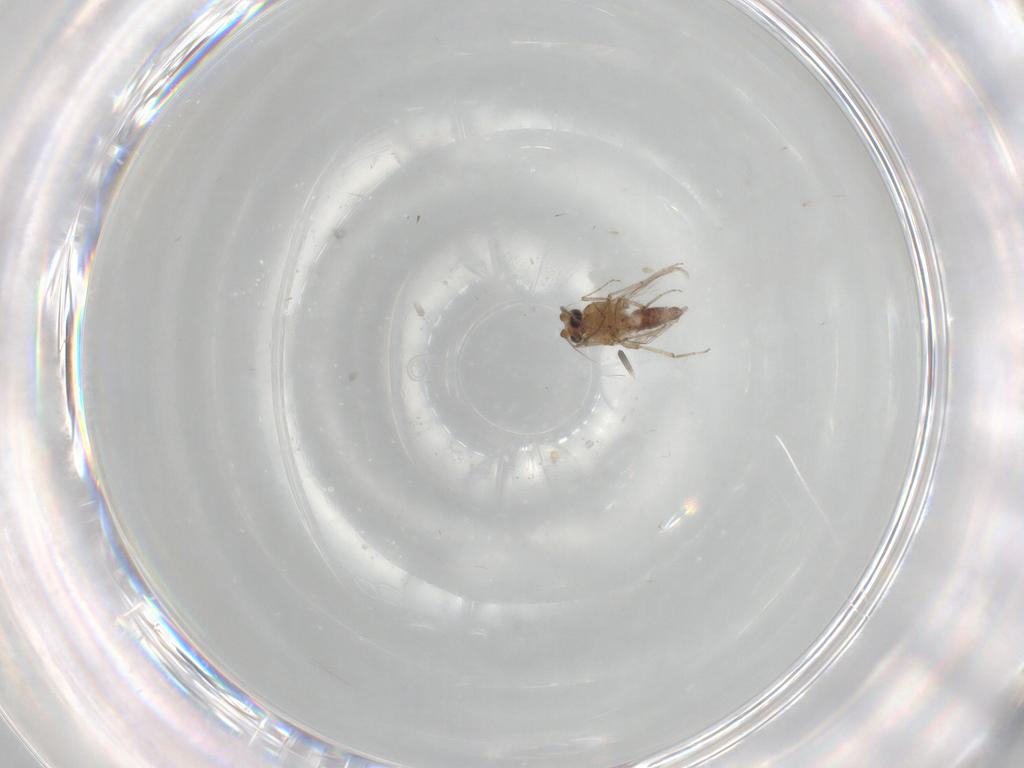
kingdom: Animalia
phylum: Arthropoda
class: Insecta
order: Diptera
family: Ceratopogonidae
